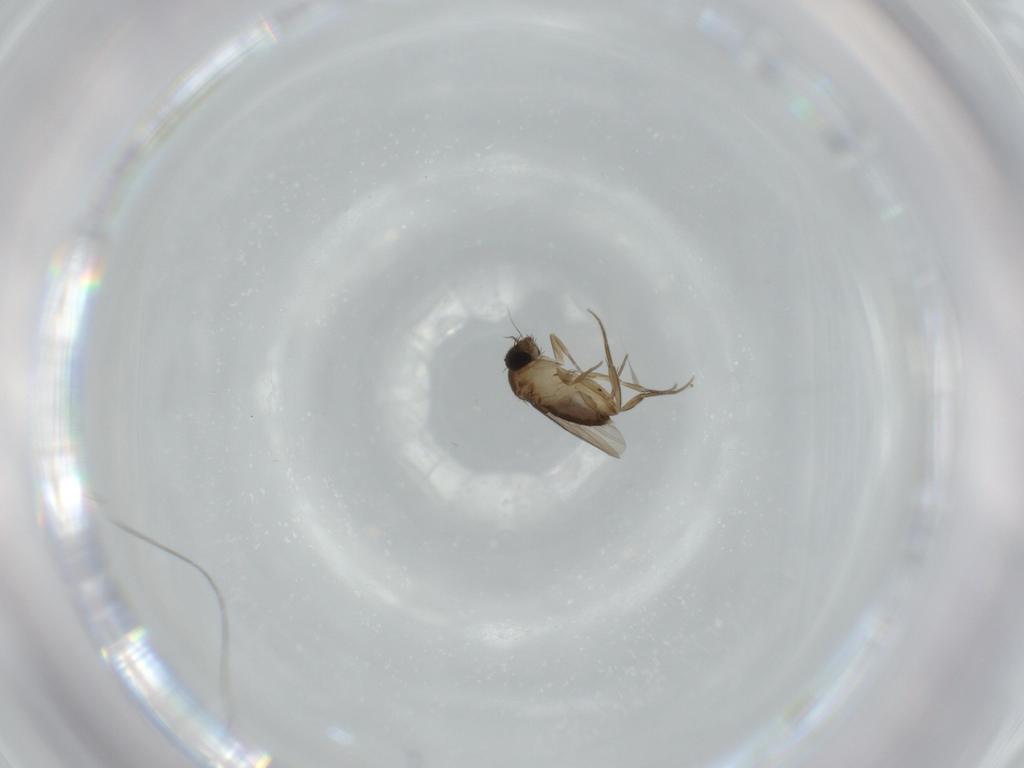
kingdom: Animalia
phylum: Arthropoda
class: Insecta
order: Diptera
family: Phoridae
